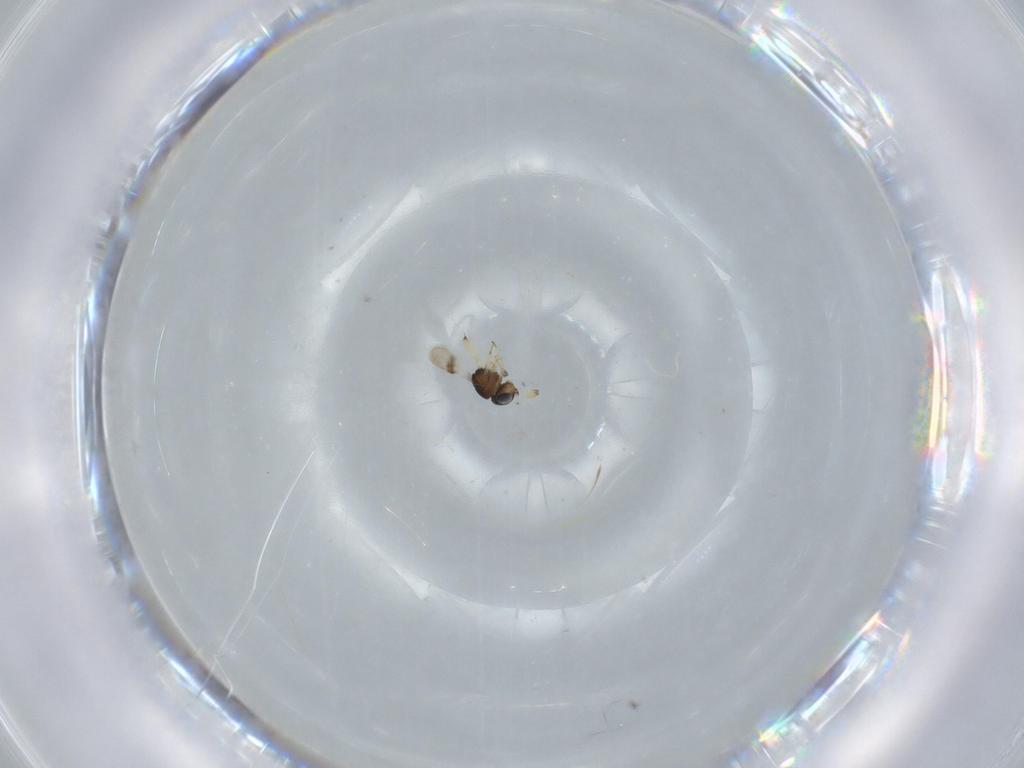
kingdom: Animalia
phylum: Arthropoda
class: Insecta
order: Hymenoptera
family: Scelionidae
